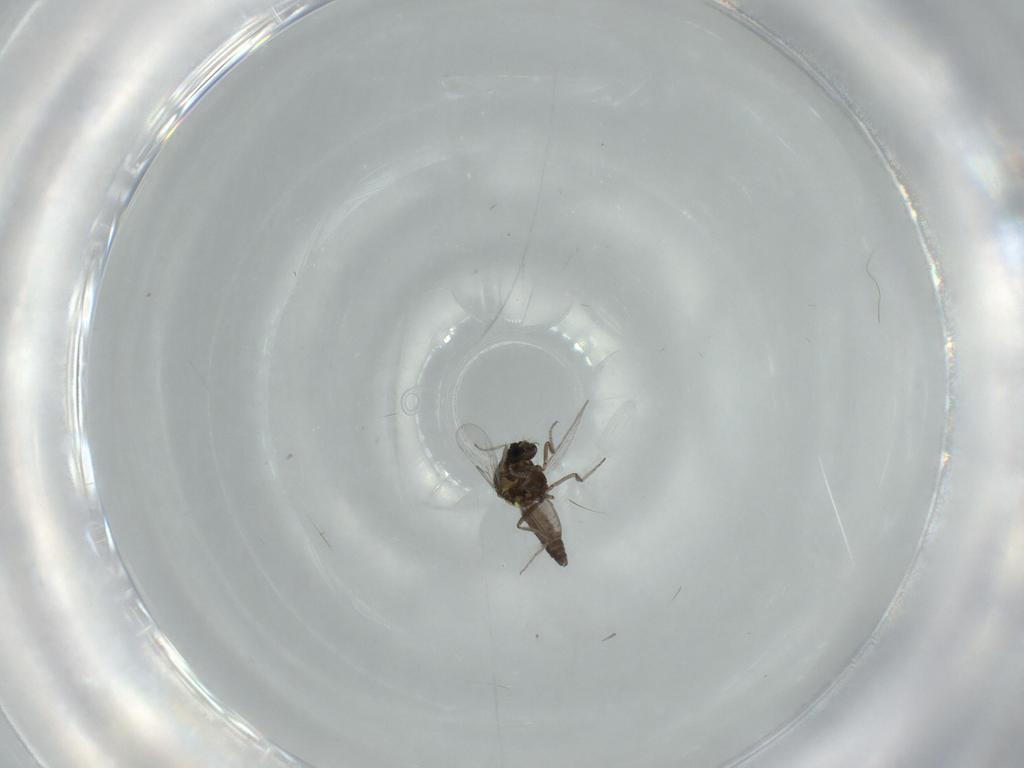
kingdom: Animalia
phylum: Arthropoda
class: Insecta
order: Diptera
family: Ceratopogonidae
